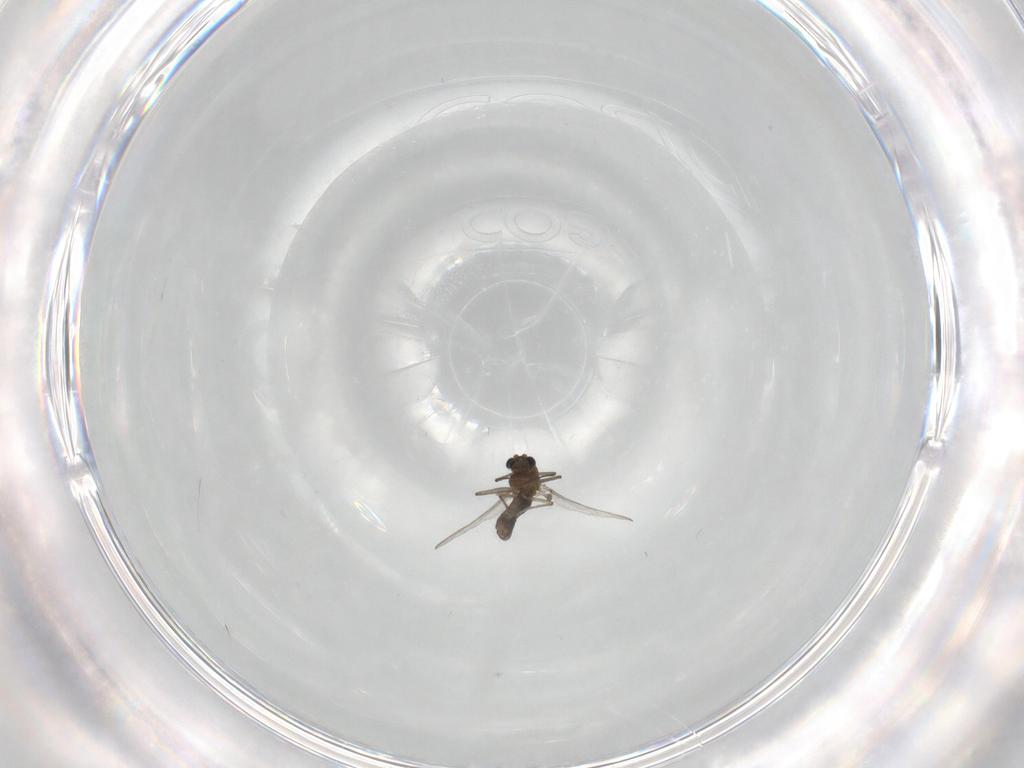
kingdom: Animalia
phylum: Arthropoda
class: Insecta
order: Diptera
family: Chironomidae
